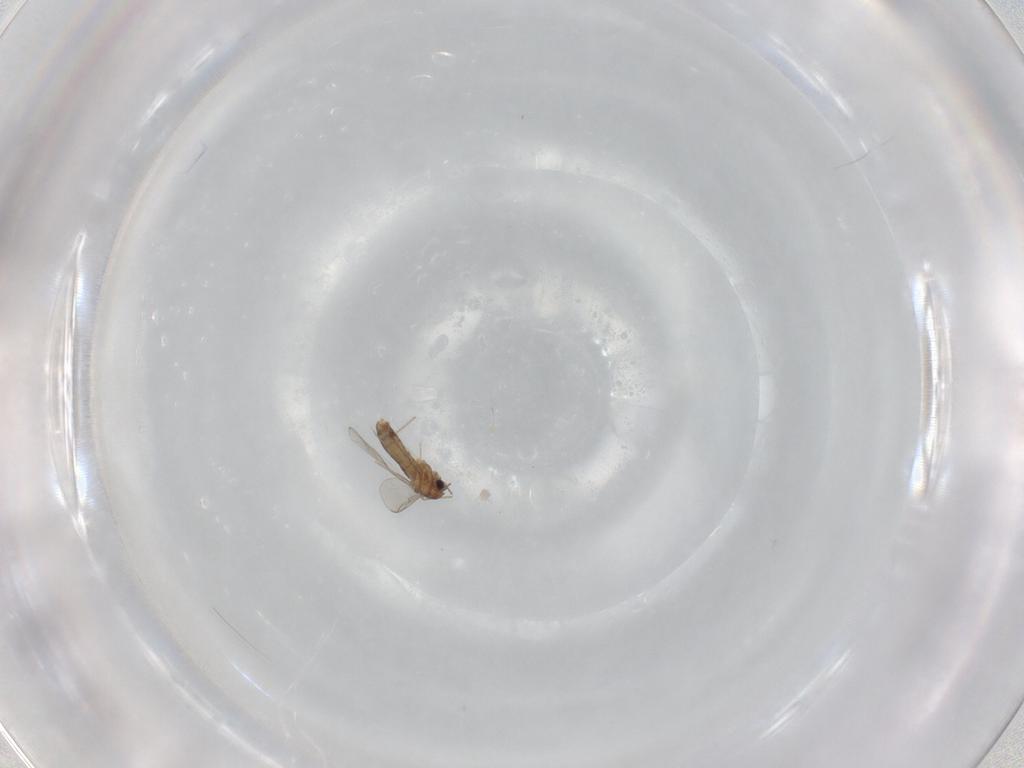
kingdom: Animalia
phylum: Arthropoda
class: Insecta
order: Diptera
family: Chironomidae
